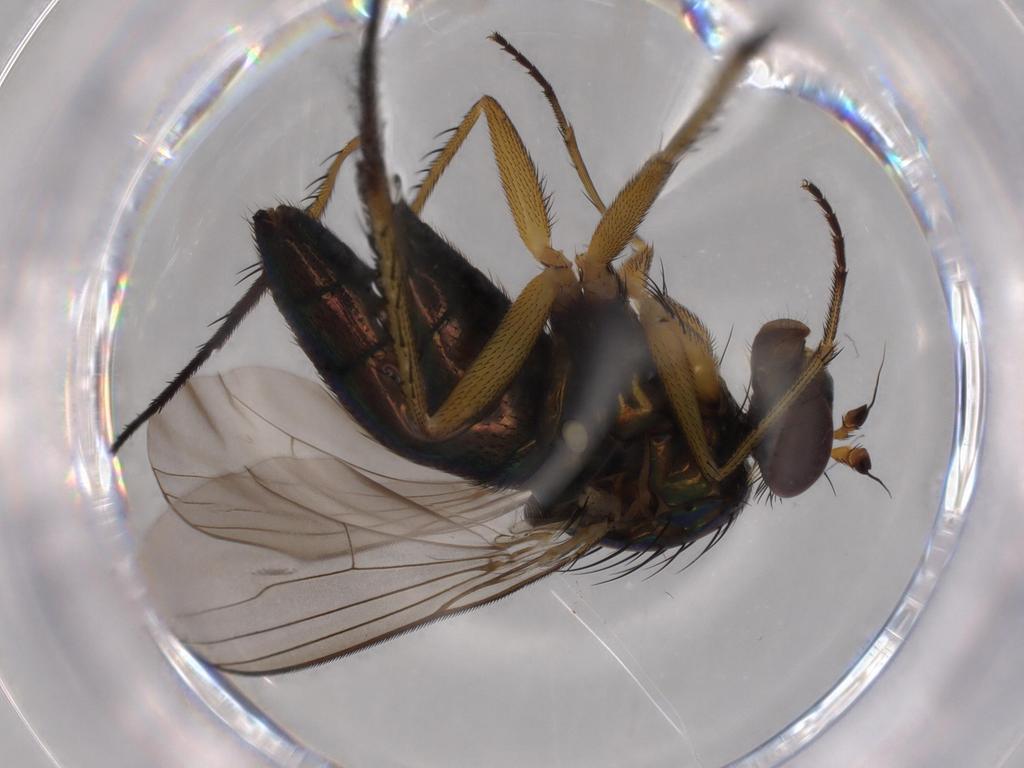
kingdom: Animalia
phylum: Arthropoda
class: Insecta
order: Diptera
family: Dolichopodidae
